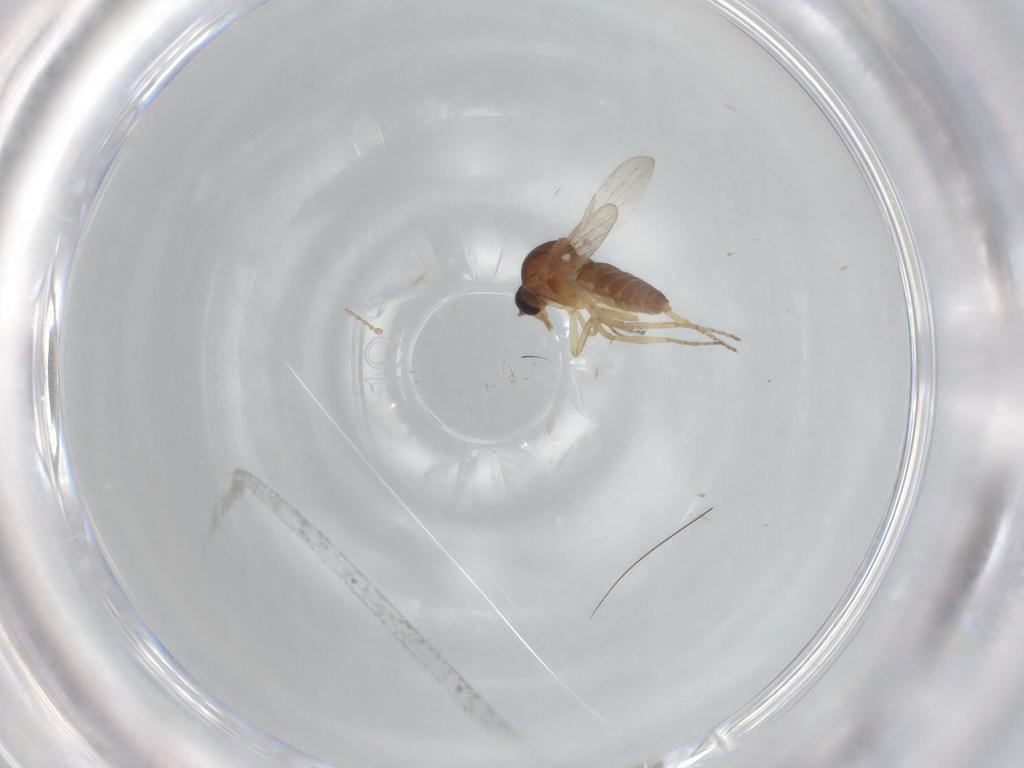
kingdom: Animalia
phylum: Arthropoda
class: Insecta
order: Diptera
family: Ceratopogonidae
